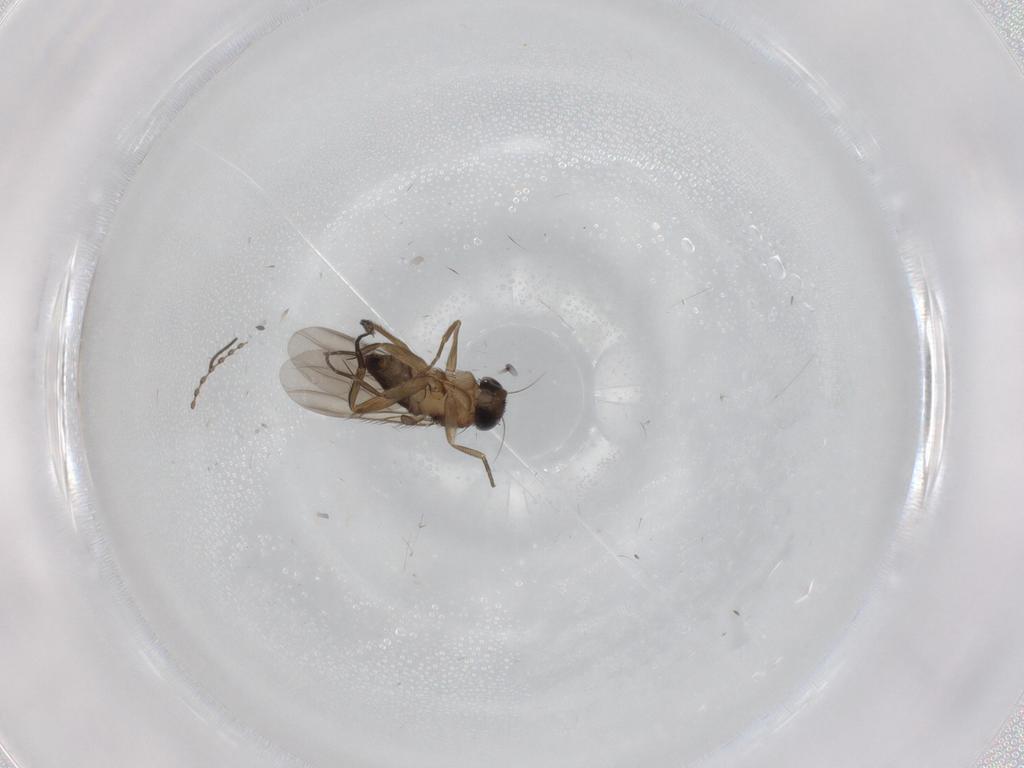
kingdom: Animalia
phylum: Arthropoda
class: Insecta
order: Diptera
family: Phoridae
